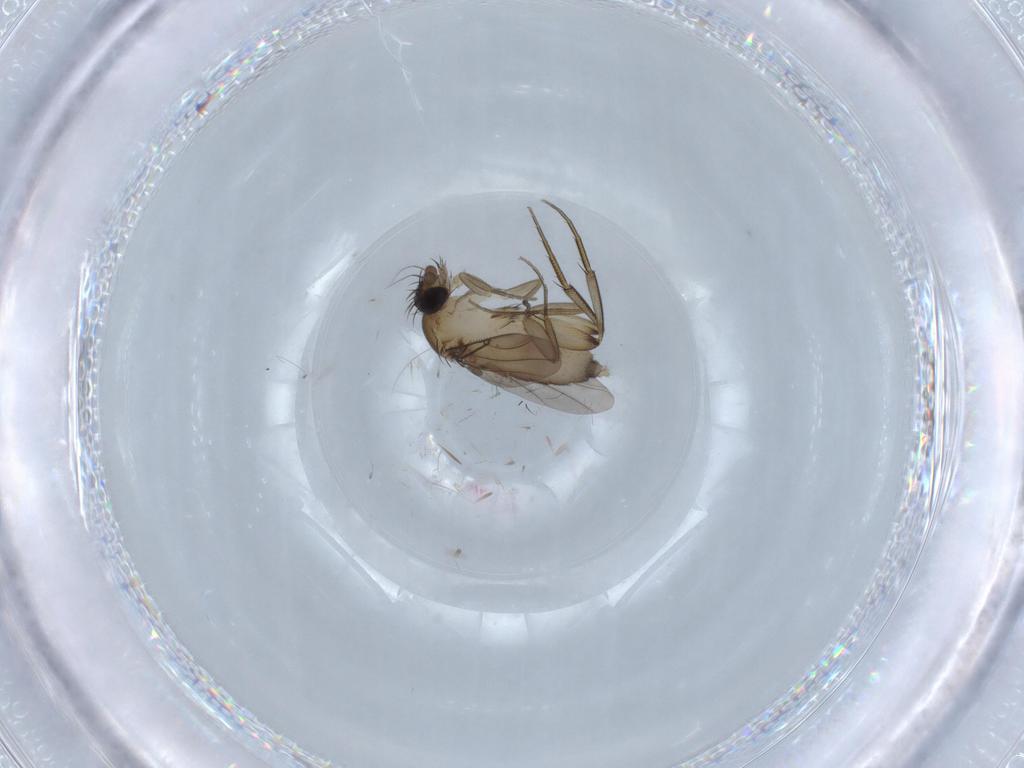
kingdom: Animalia
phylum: Arthropoda
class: Insecta
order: Diptera
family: Phoridae
